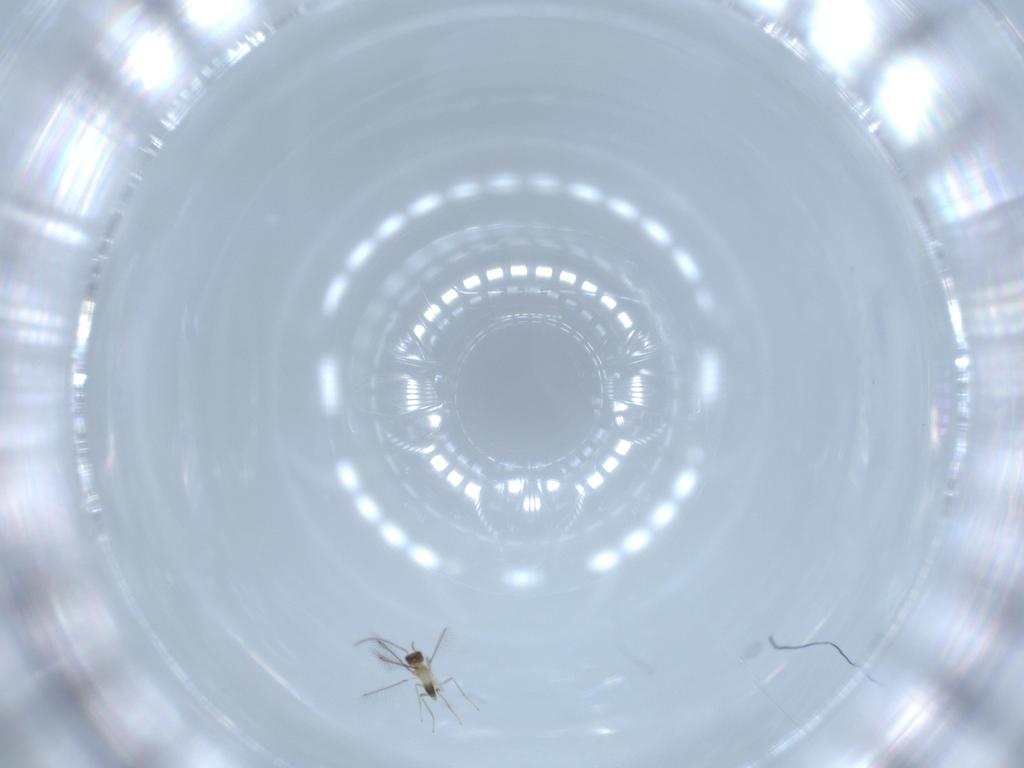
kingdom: Animalia
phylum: Arthropoda
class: Insecta
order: Hymenoptera
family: Mymaridae
